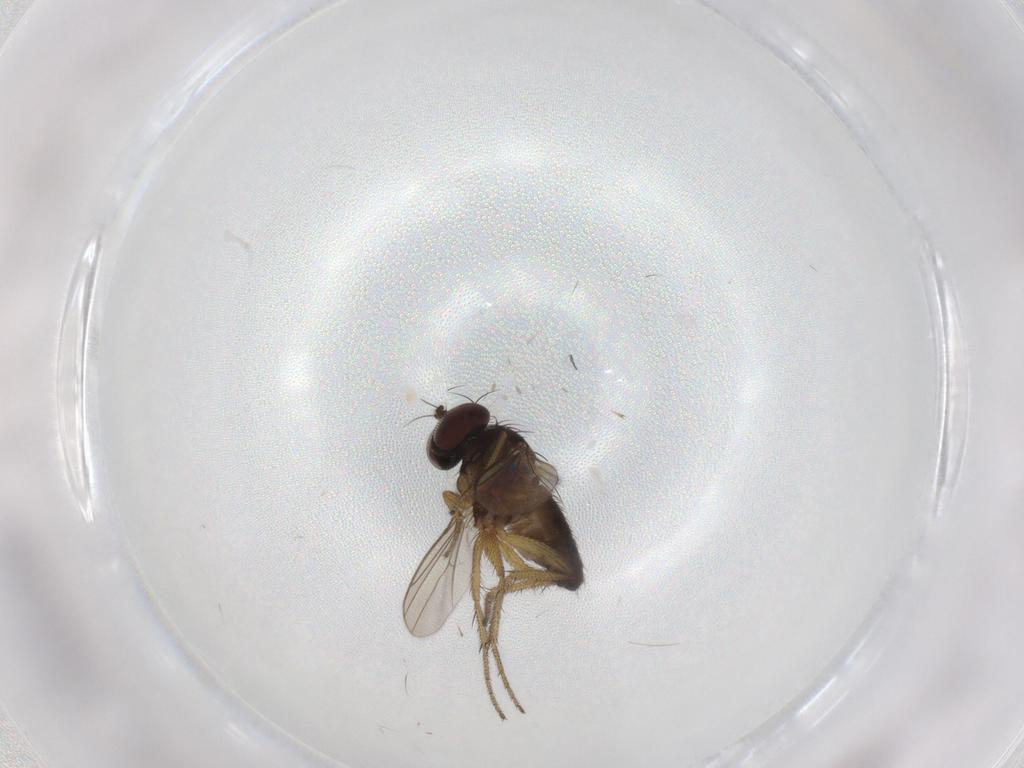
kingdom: Animalia
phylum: Arthropoda
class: Insecta
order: Diptera
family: Dolichopodidae
